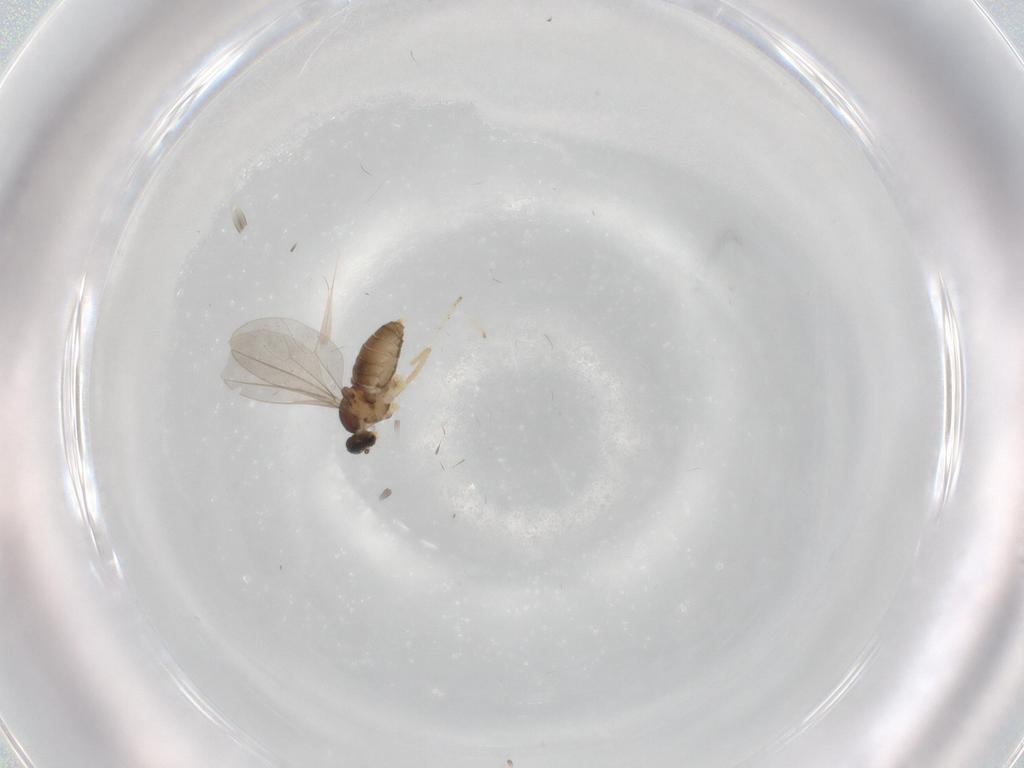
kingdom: Animalia
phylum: Arthropoda
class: Insecta
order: Diptera
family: Cecidomyiidae
